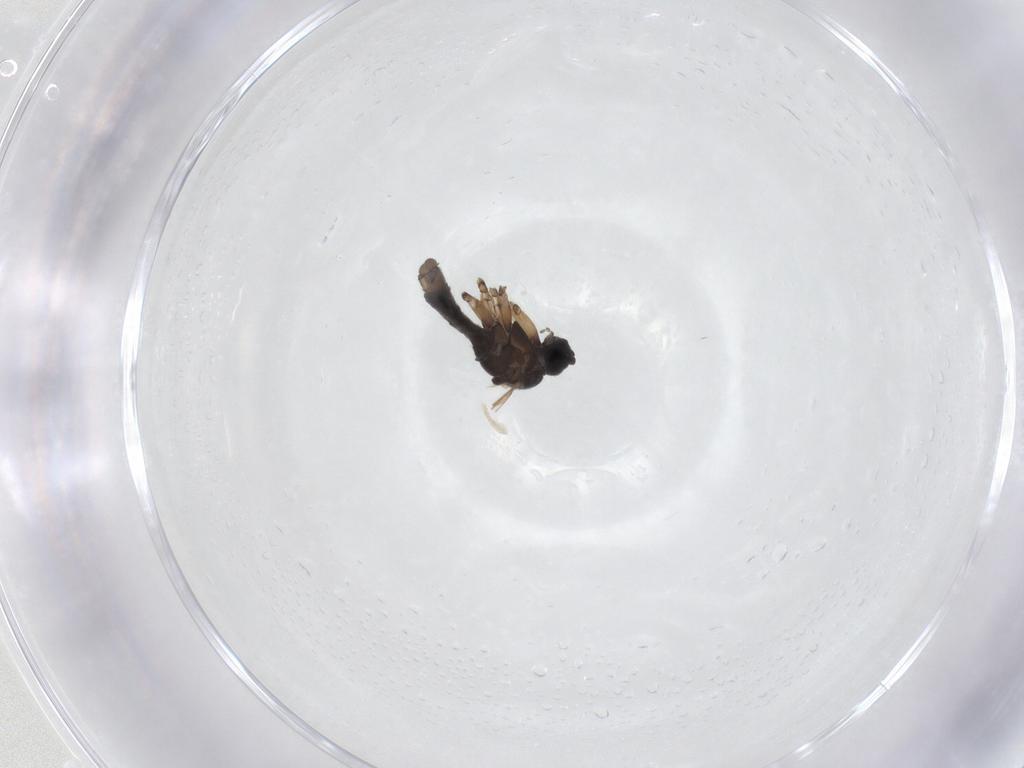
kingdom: Animalia
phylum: Arthropoda
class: Insecta
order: Diptera
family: Sciaridae
